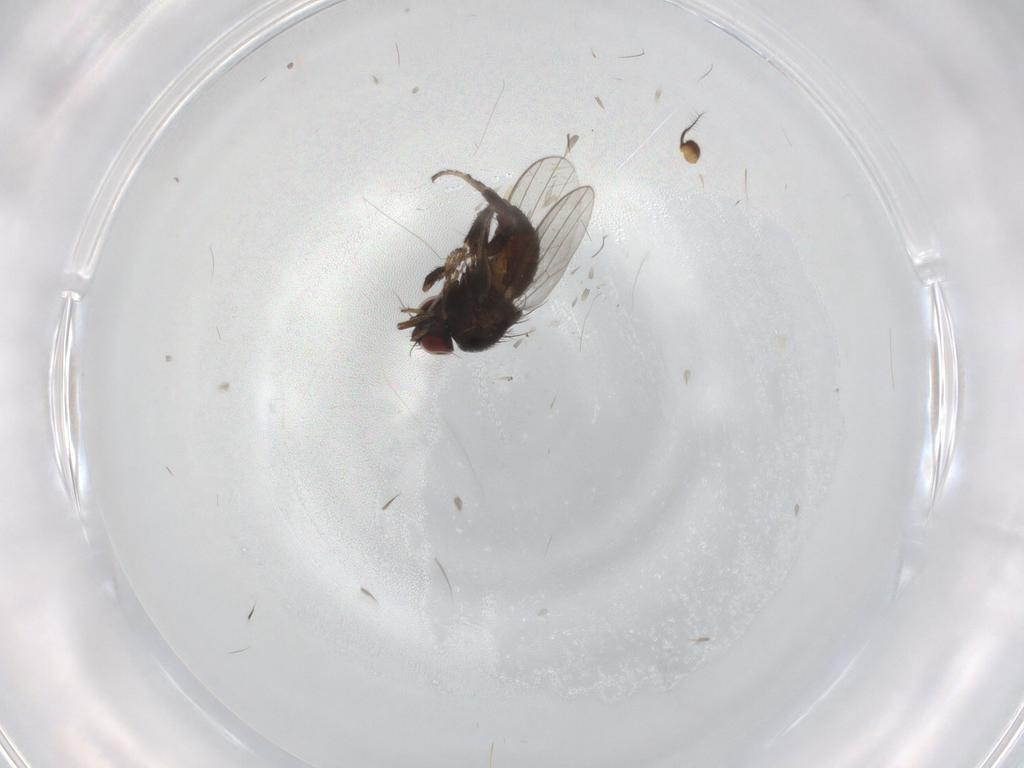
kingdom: Animalia
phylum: Arthropoda
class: Insecta
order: Diptera
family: Milichiidae
